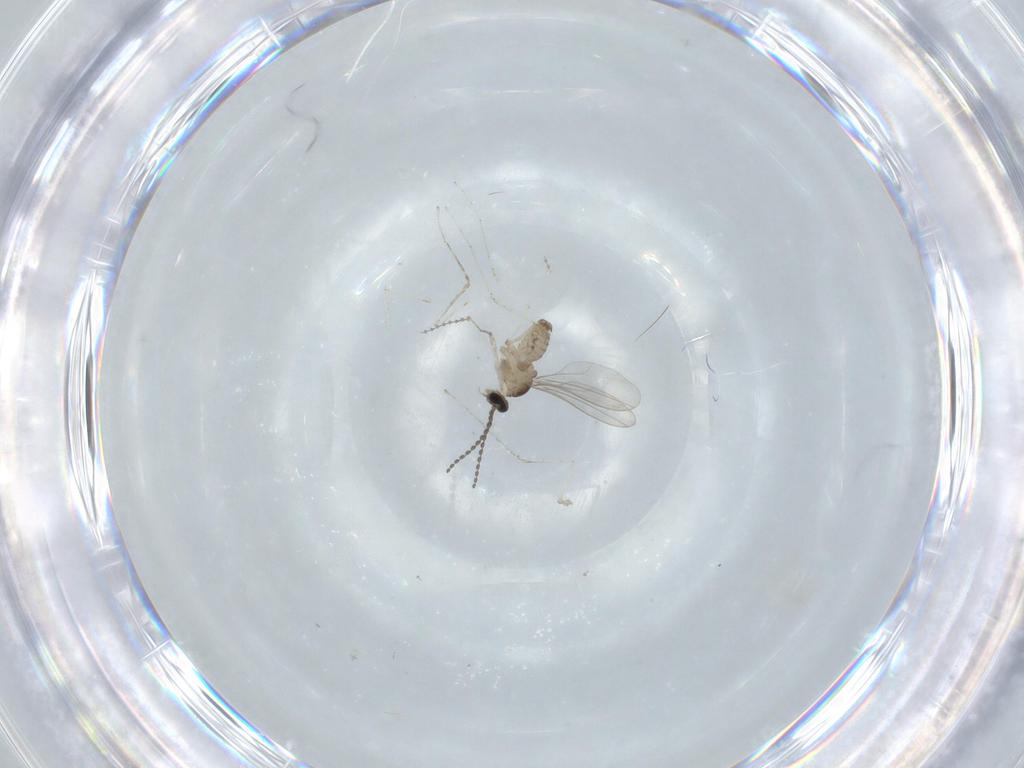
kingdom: Animalia
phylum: Arthropoda
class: Insecta
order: Diptera
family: Cecidomyiidae
